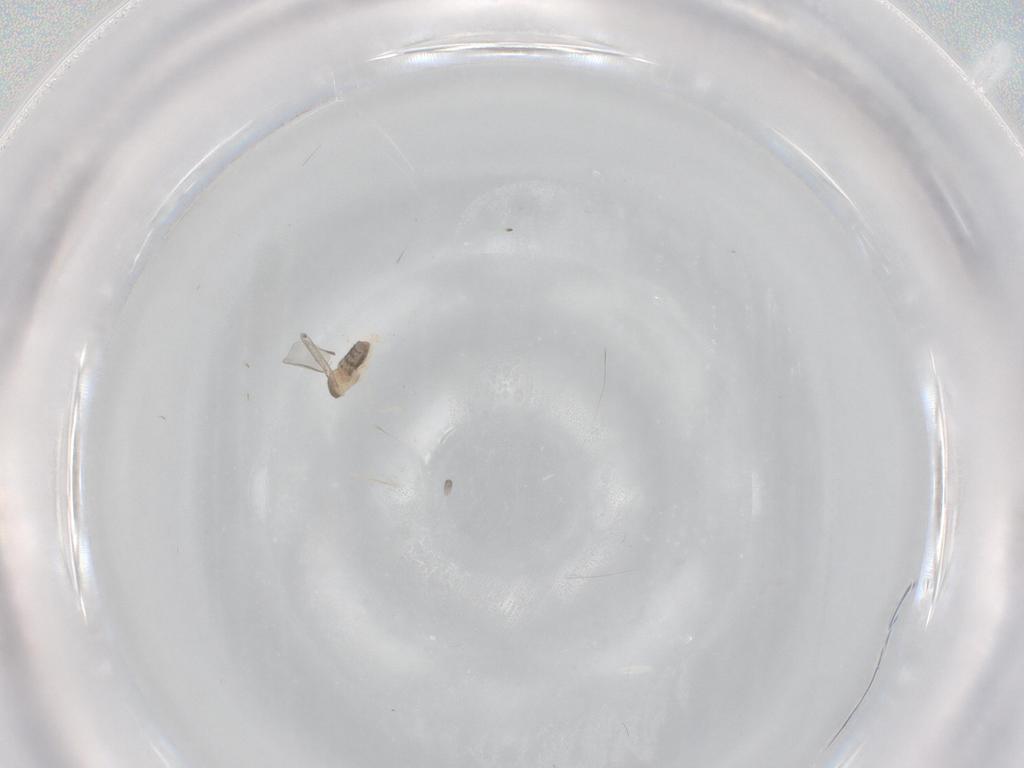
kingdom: Animalia
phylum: Arthropoda
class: Insecta
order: Diptera
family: Cecidomyiidae
